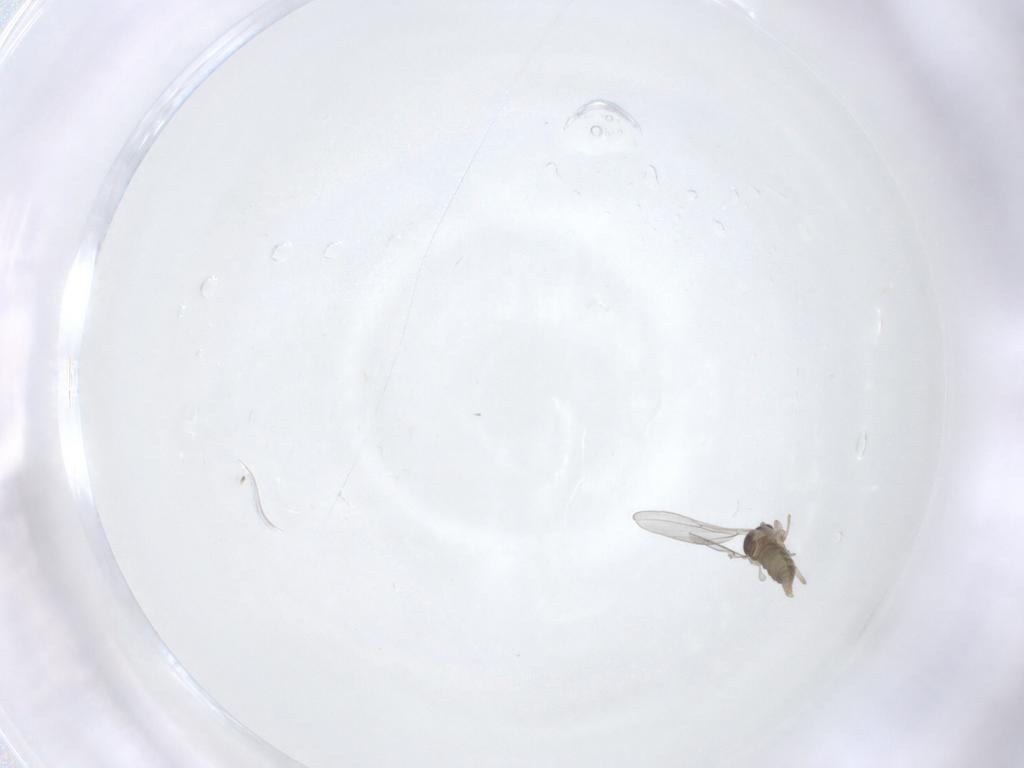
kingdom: Animalia
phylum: Arthropoda
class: Insecta
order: Diptera
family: Cecidomyiidae
